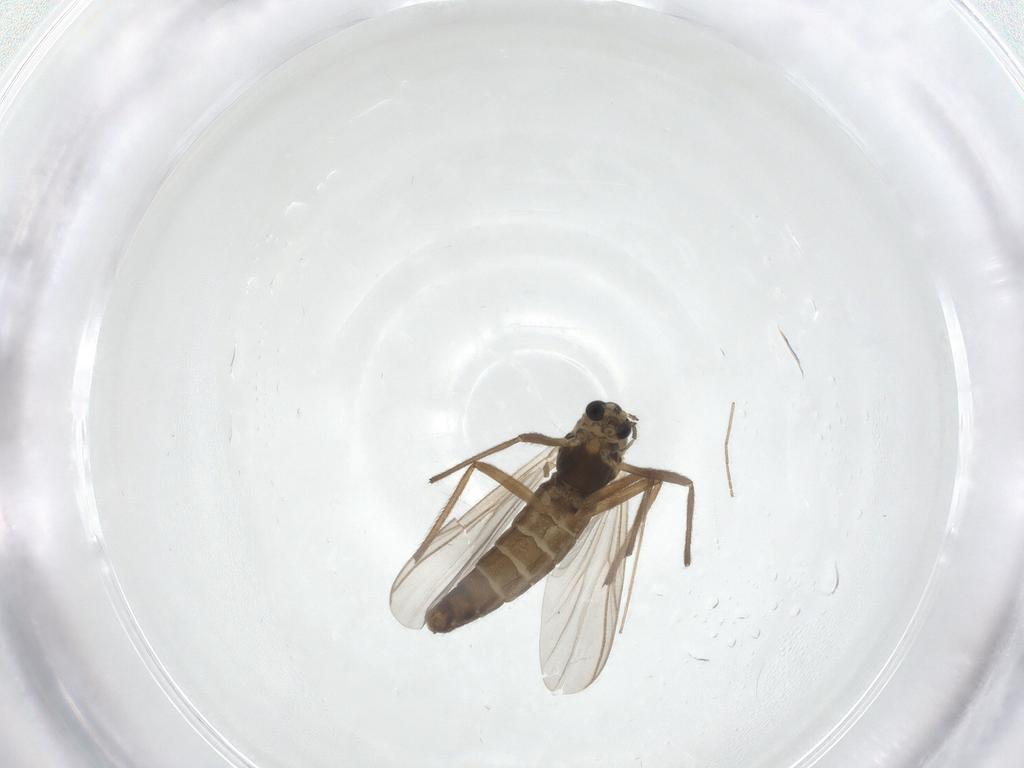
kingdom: Animalia
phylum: Arthropoda
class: Insecta
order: Diptera
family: Chironomidae
